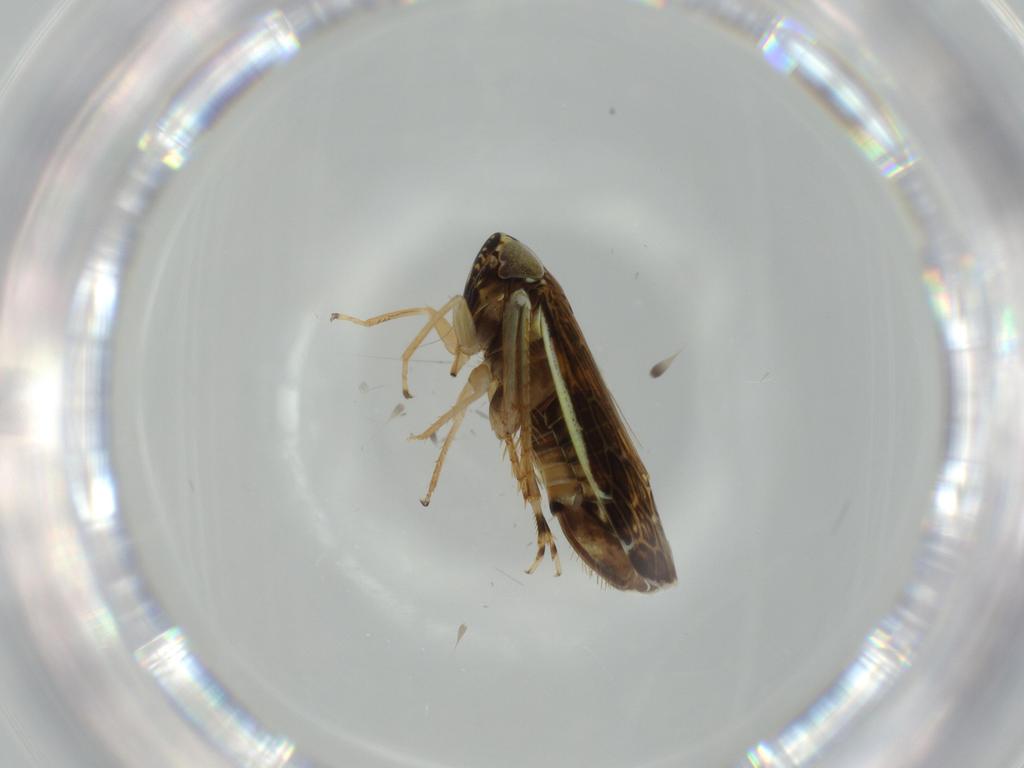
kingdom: Animalia
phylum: Arthropoda
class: Insecta
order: Hemiptera
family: Cicadellidae
